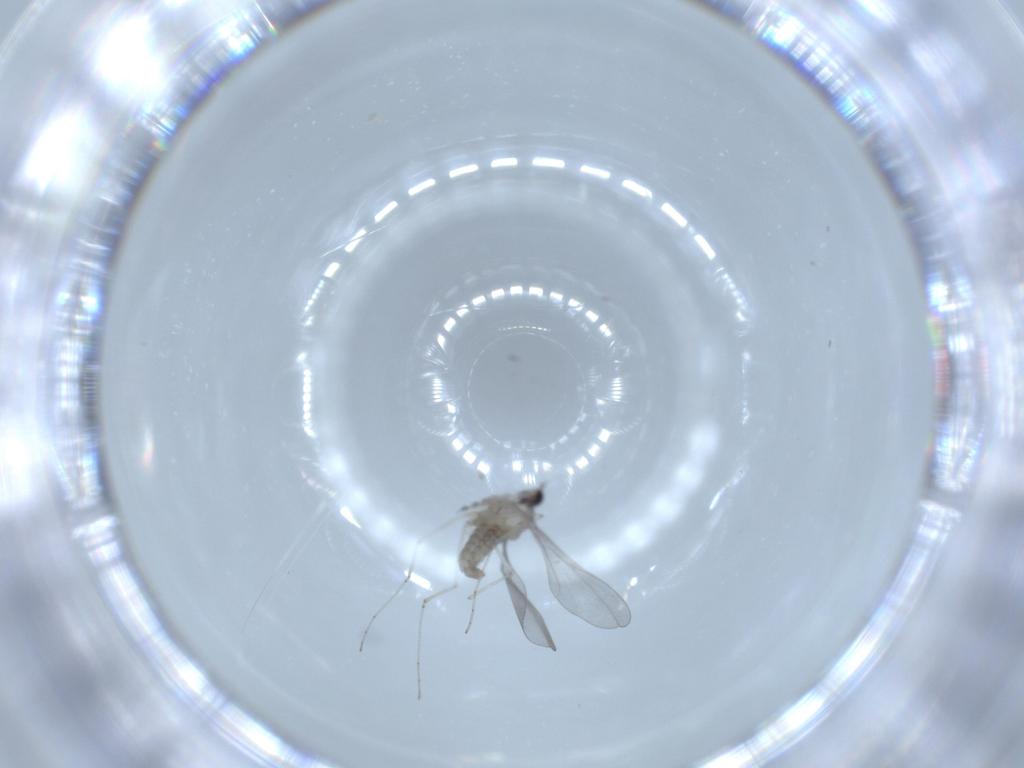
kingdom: Animalia
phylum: Arthropoda
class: Insecta
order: Diptera
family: Cecidomyiidae
